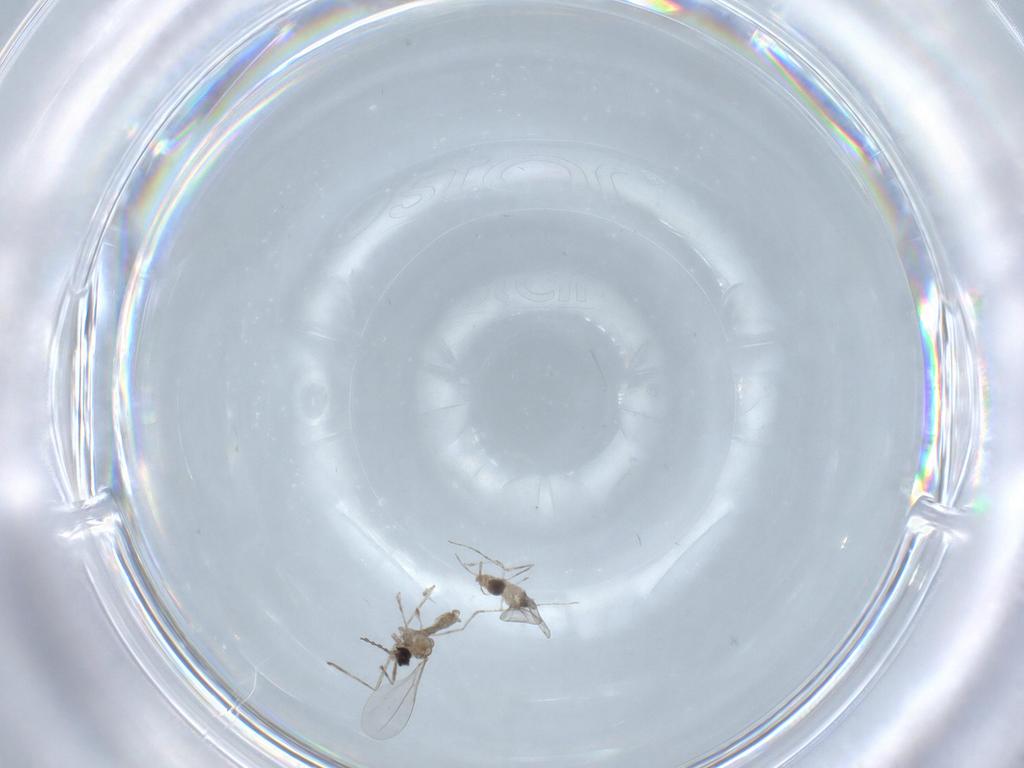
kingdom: Animalia
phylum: Arthropoda
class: Insecta
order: Diptera
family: Cecidomyiidae
